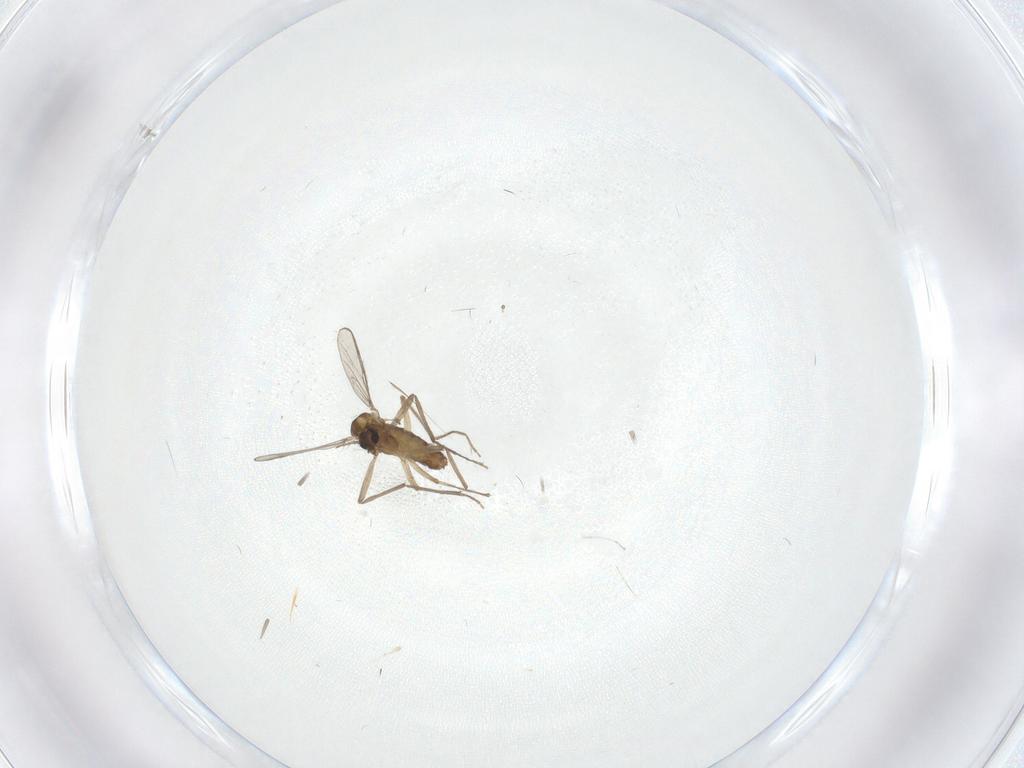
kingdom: Animalia
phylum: Arthropoda
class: Insecta
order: Diptera
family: Chironomidae
